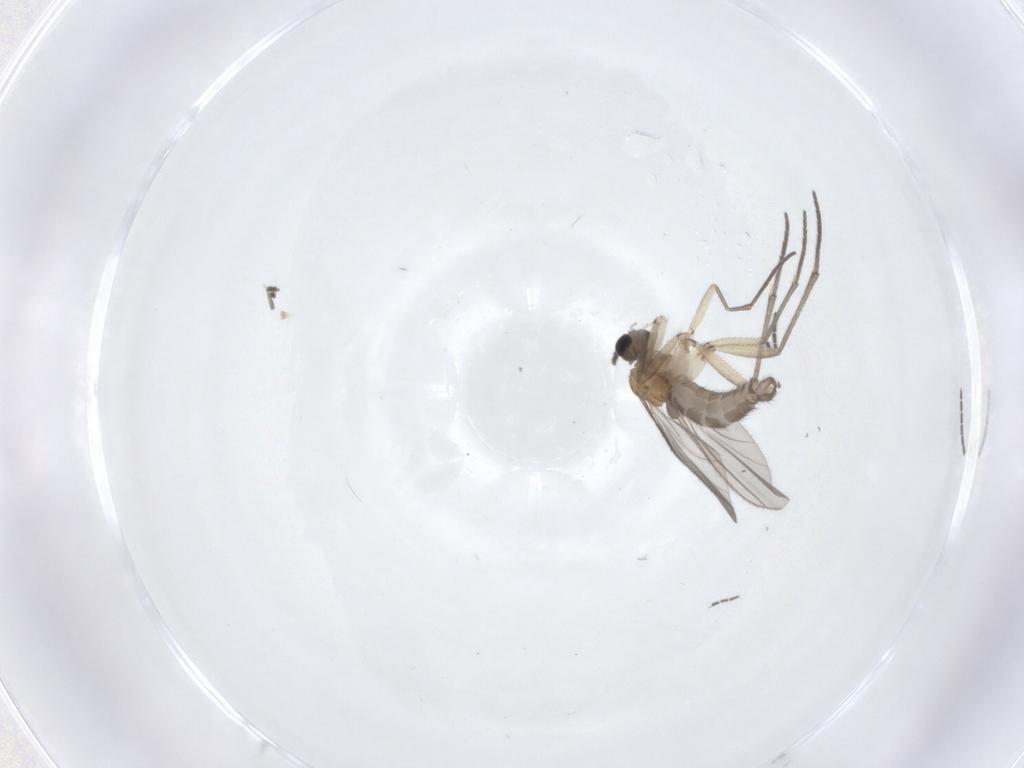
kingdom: Animalia
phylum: Arthropoda
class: Insecta
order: Diptera
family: Sciaridae
